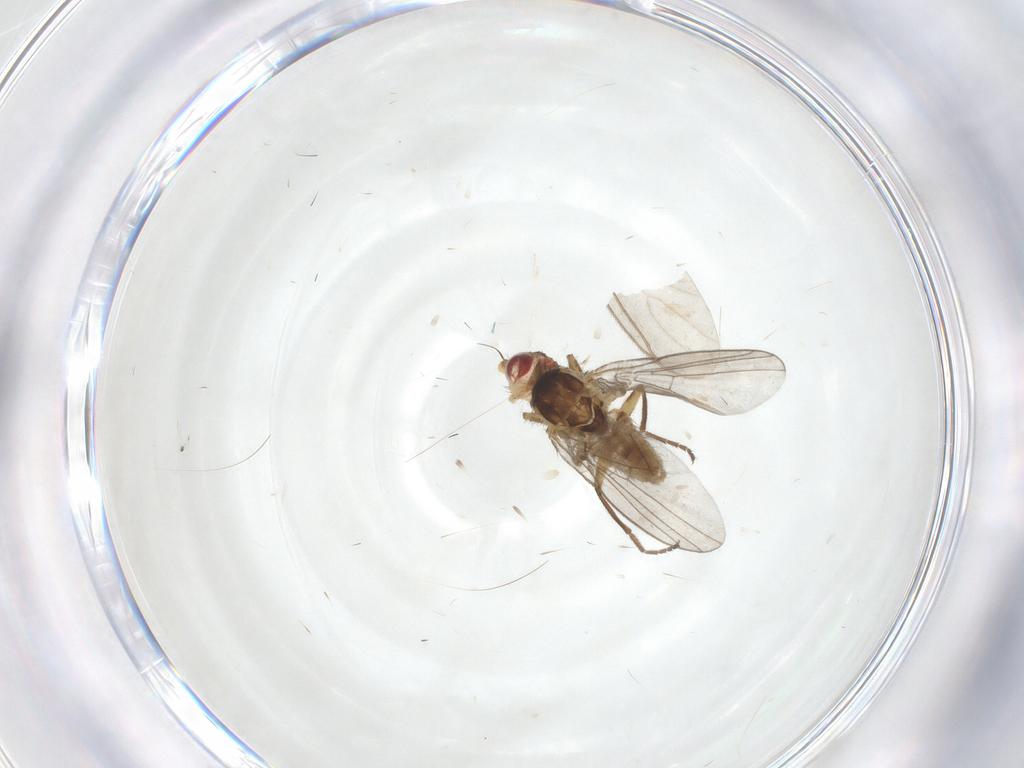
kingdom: Animalia
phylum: Arthropoda
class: Insecta
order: Diptera
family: Agromyzidae
